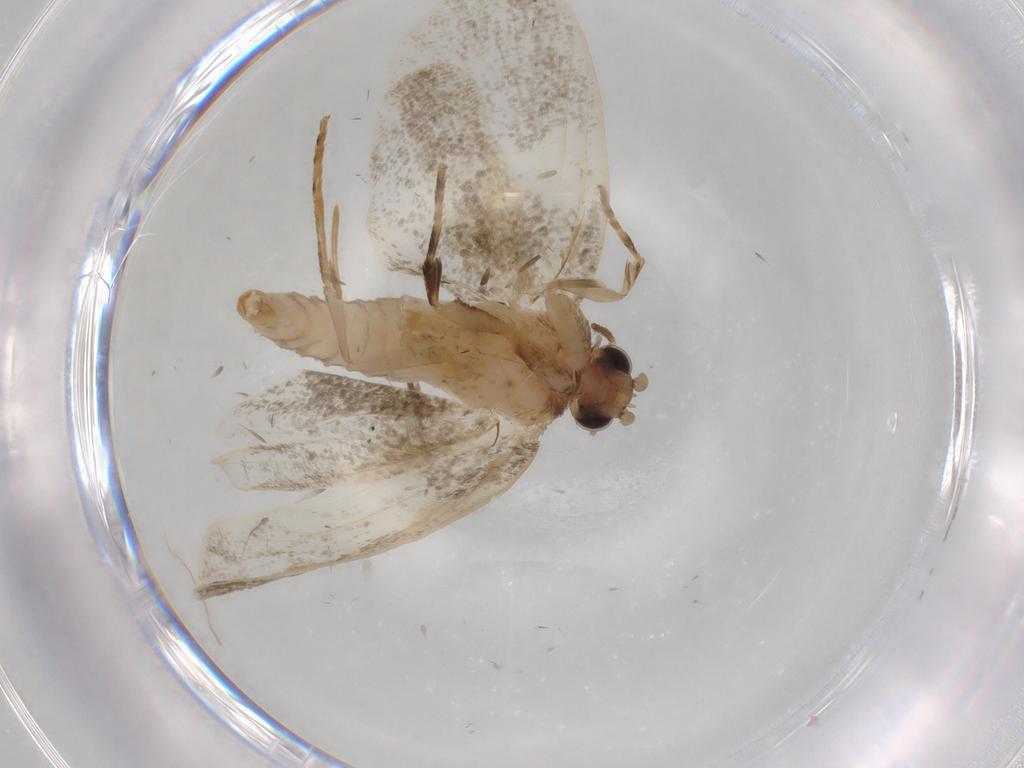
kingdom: Animalia
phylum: Arthropoda
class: Insecta
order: Lepidoptera
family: Psychidae
